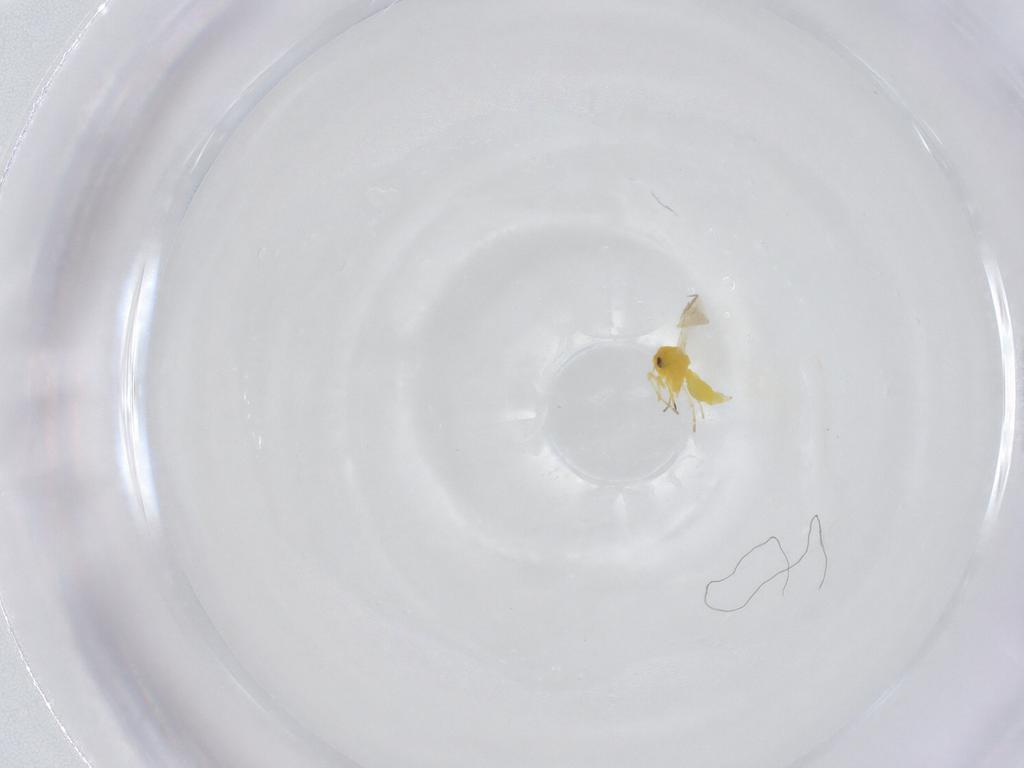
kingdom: Animalia
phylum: Arthropoda
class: Insecta
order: Hemiptera
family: Aleyrodidae
